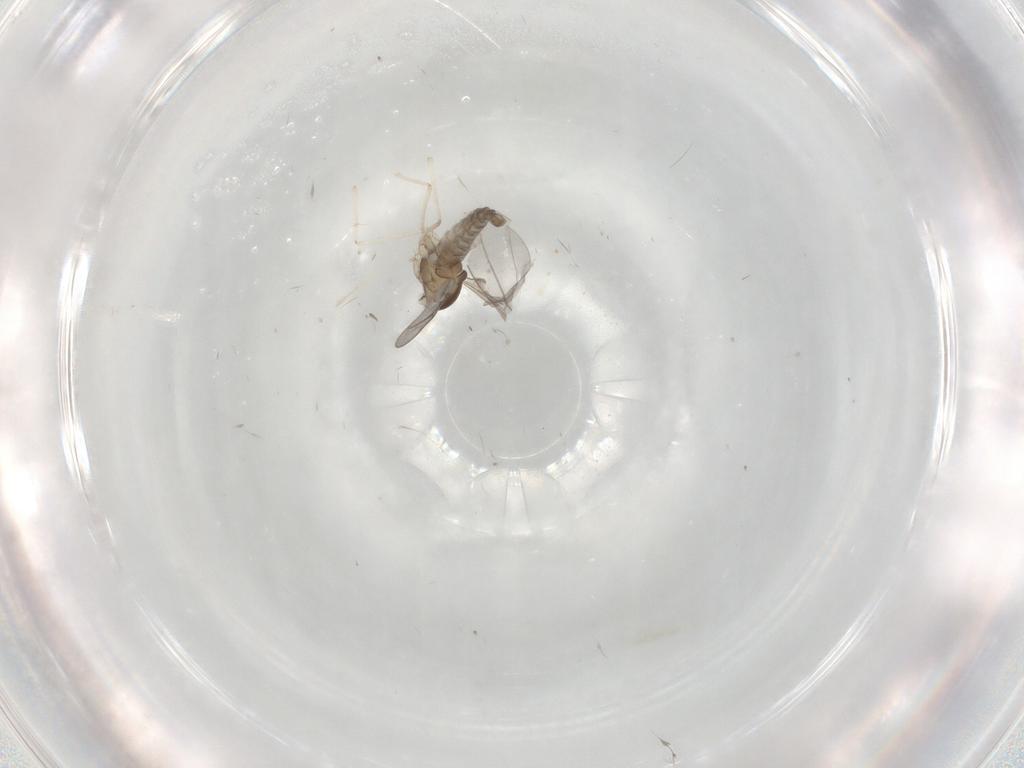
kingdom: Animalia
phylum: Arthropoda
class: Insecta
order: Diptera
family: Cecidomyiidae
